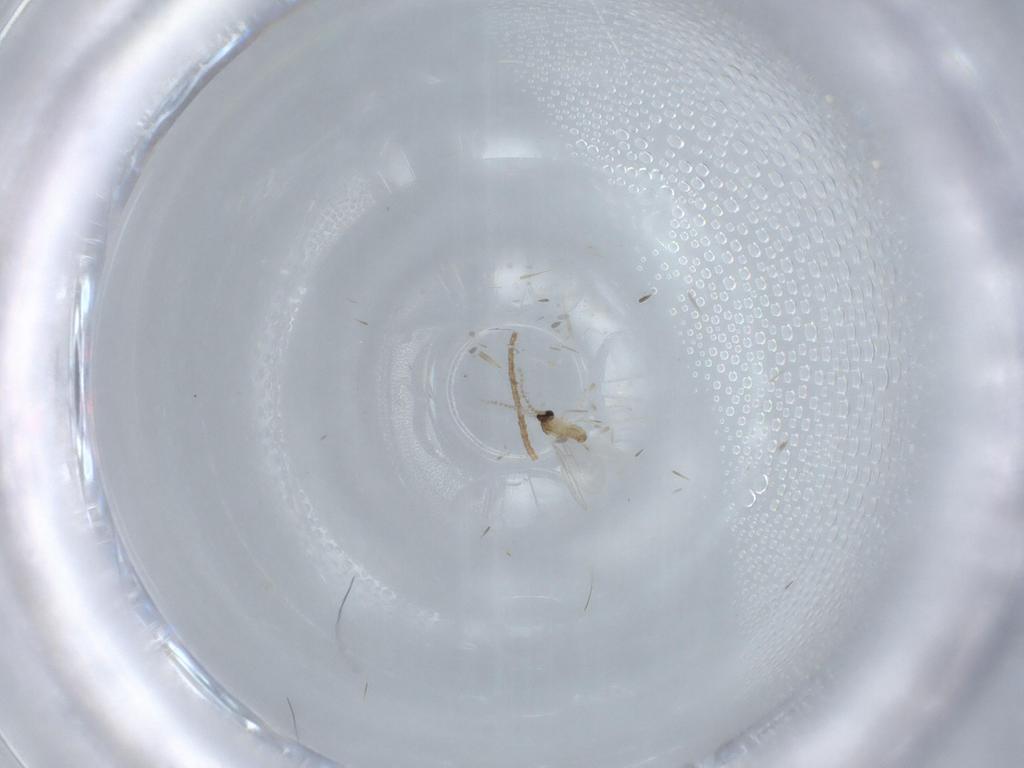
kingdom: Animalia
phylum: Arthropoda
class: Insecta
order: Diptera
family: Cecidomyiidae
